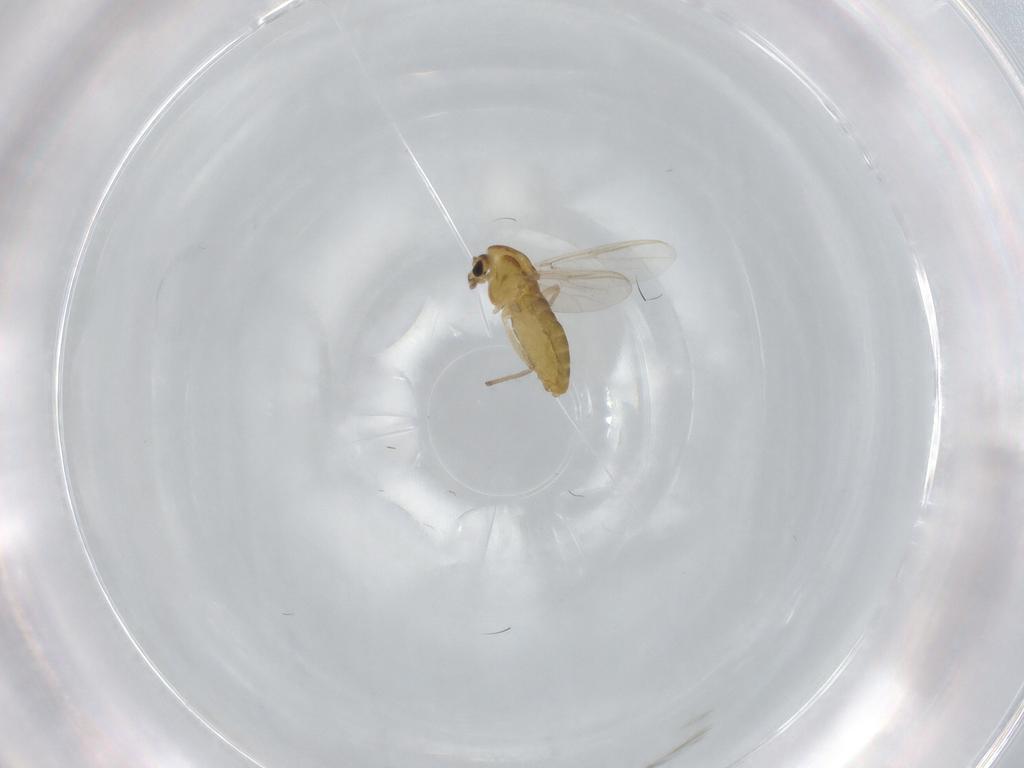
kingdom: Animalia
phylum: Arthropoda
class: Insecta
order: Diptera
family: Chironomidae
